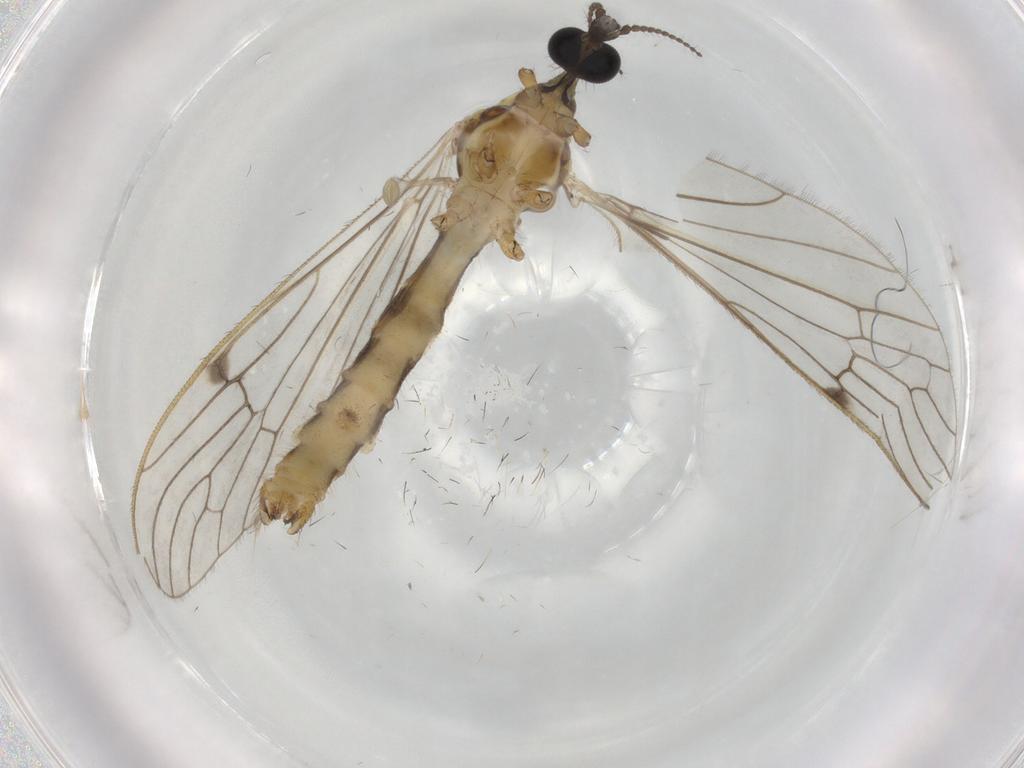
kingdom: Animalia
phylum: Arthropoda
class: Insecta
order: Diptera
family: Limoniidae
